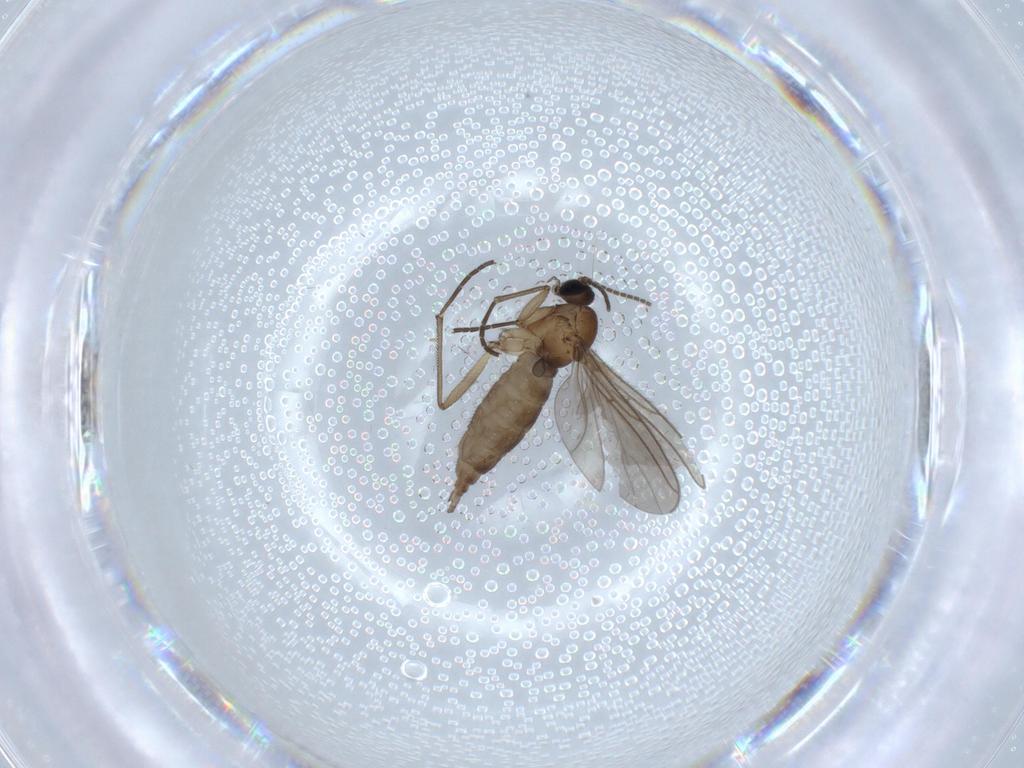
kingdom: Animalia
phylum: Arthropoda
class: Insecta
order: Diptera
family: Sciaridae
